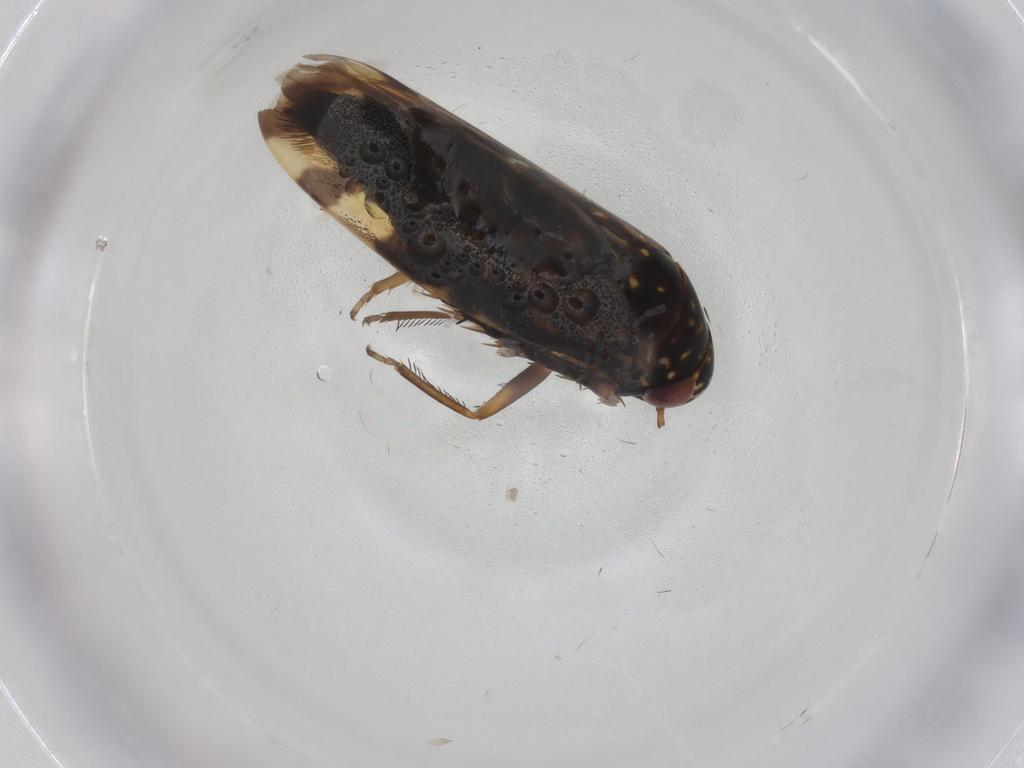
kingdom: Animalia
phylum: Arthropoda
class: Insecta
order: Hemiptera
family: Cicadellidae
